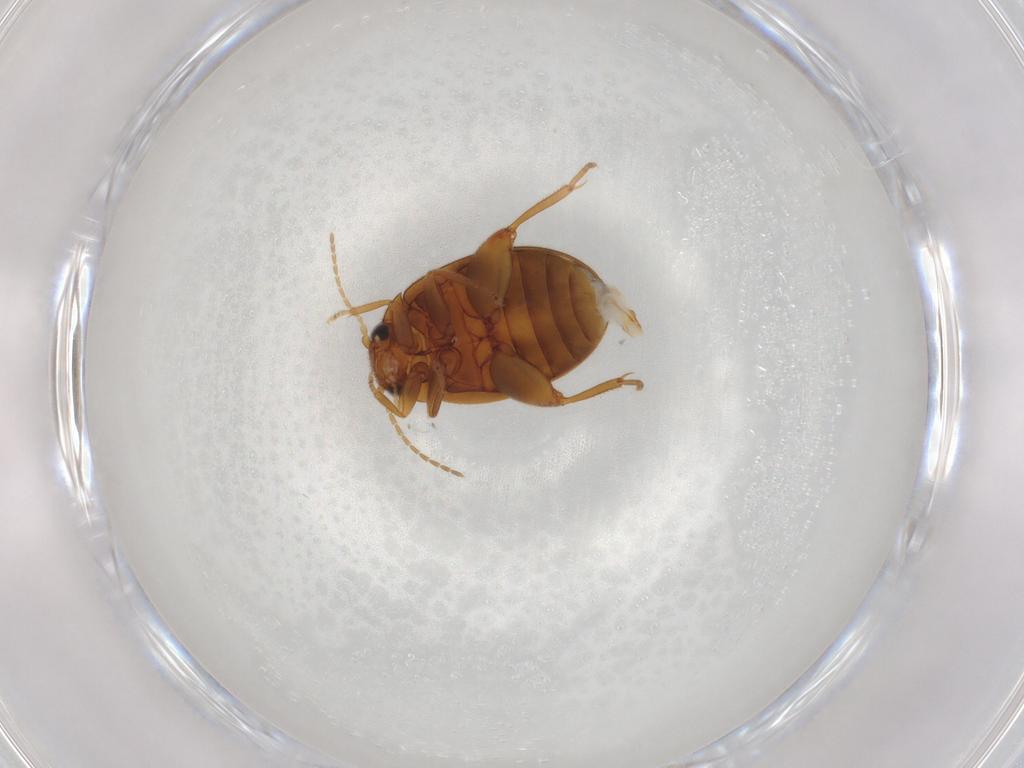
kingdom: Animalia
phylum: Arthropoda
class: Insecta
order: Coleoptera
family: Scirtidae
